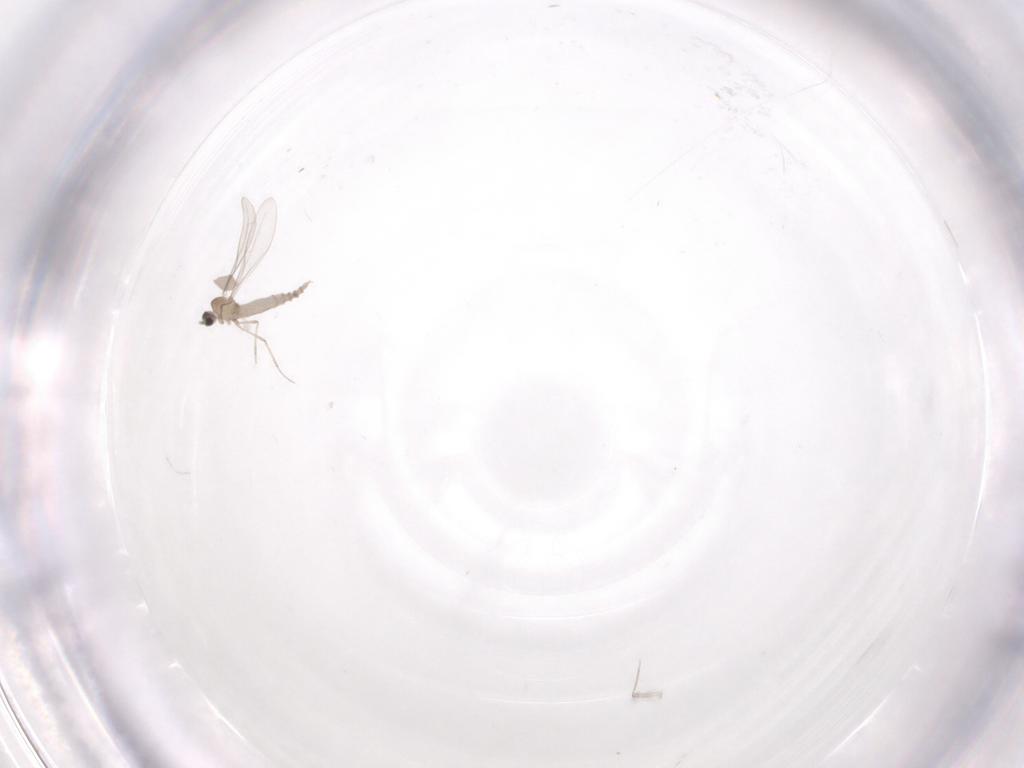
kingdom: Animalia
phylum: Arthropoda
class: Insecta
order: Diptera
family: Cecidomyiidae
